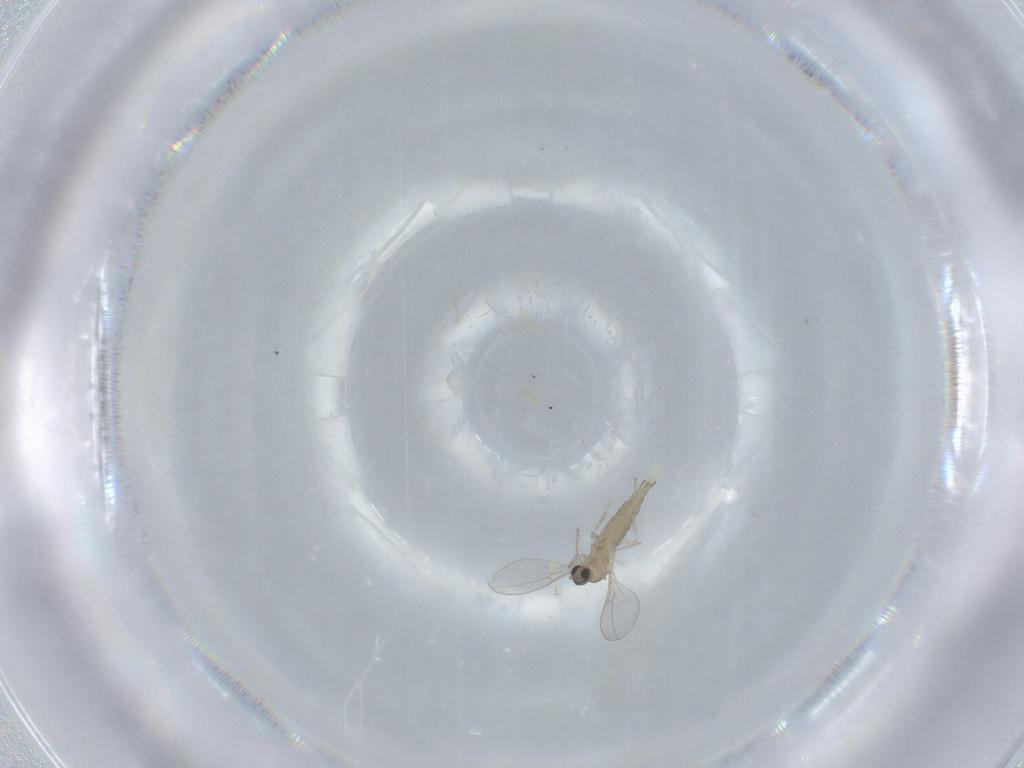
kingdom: Animalia
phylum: Arthropoda
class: Insecta
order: Diptera
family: Cecidomyiidae
